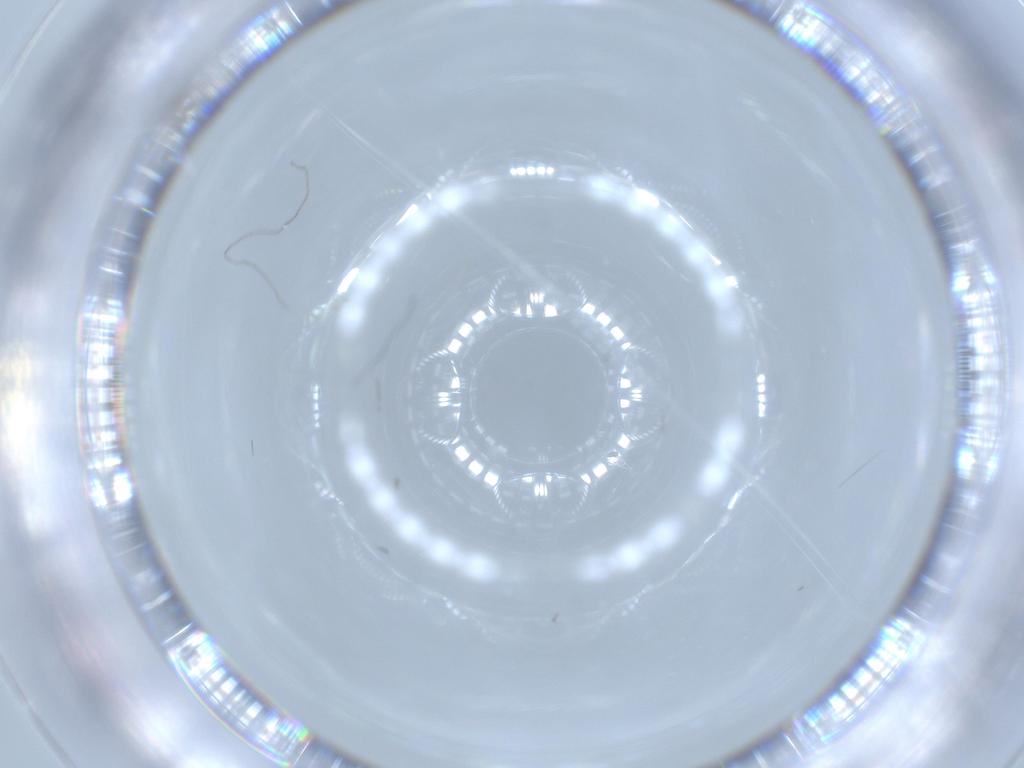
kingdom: Animalia
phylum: Arthropoda
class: Insecta
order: Diptera
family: Cecidomyiidae
